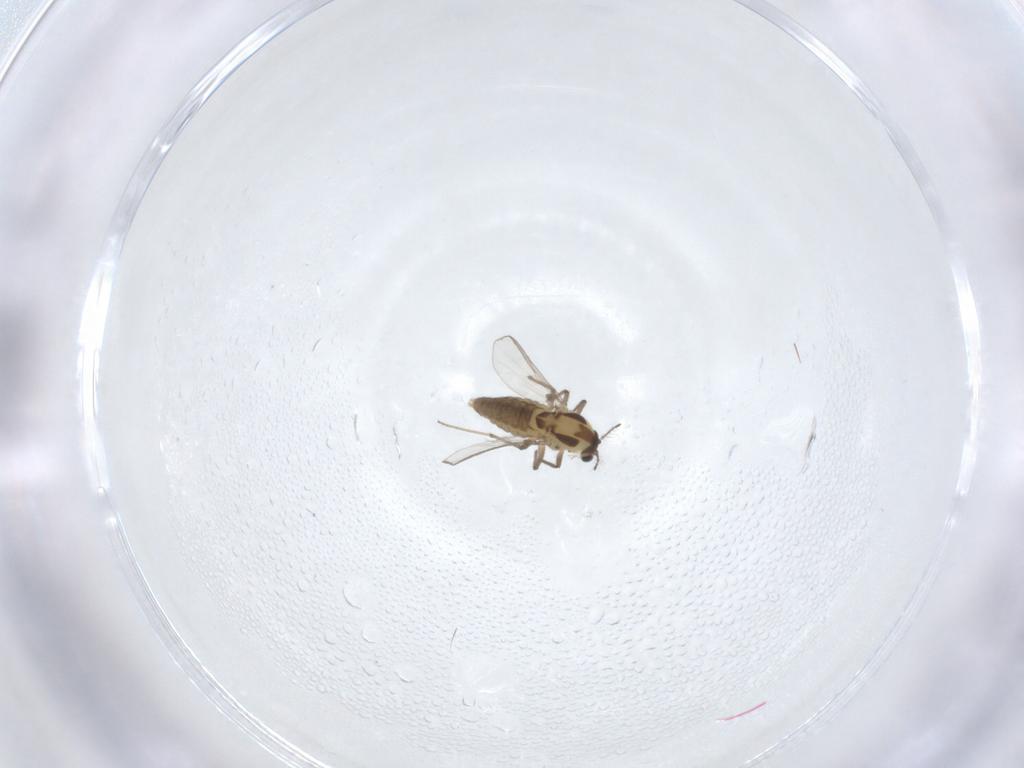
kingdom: Animalia
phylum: Arthropoda
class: Insecta
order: Diptera
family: Chironomidae
